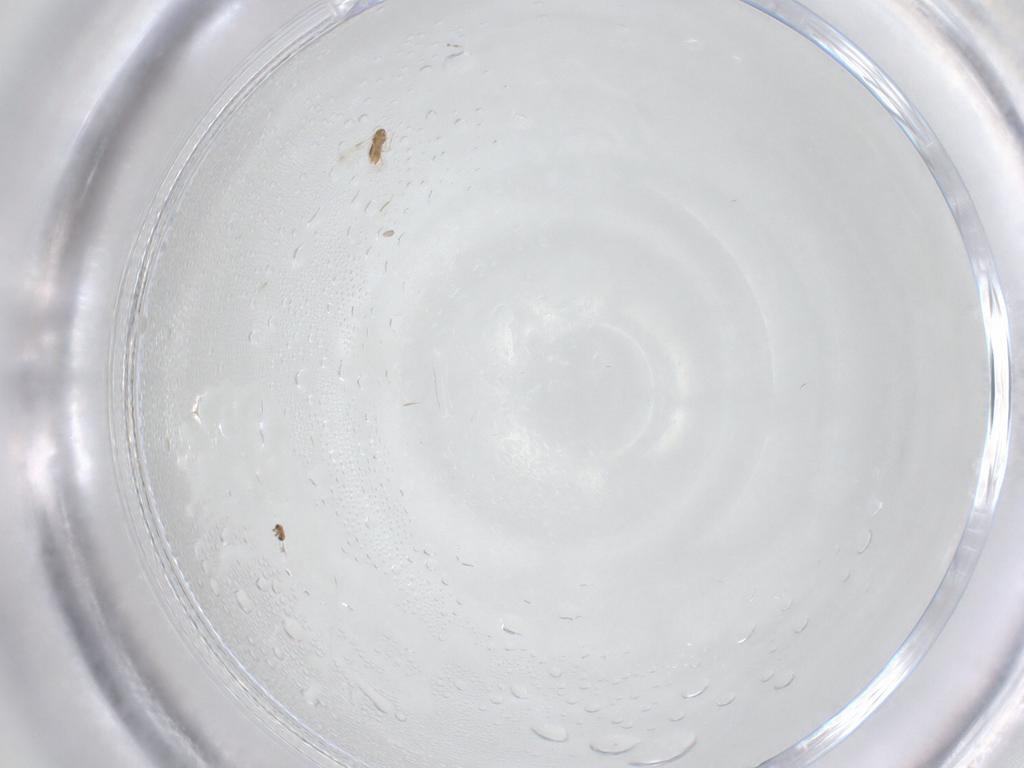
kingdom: Animalia
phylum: Arthropoda
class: Insecta
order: Diptera
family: Cecidomyiidae
